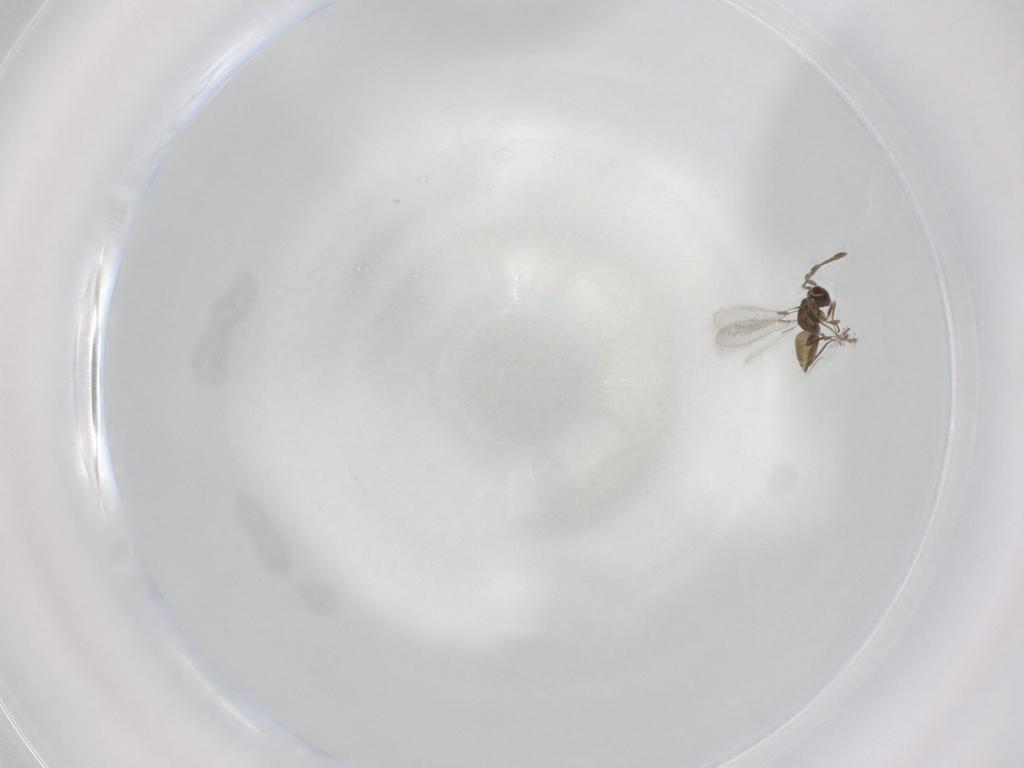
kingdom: Animalia
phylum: Arthropoda
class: Insecta
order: Hymenoptera
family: Mymaridae
